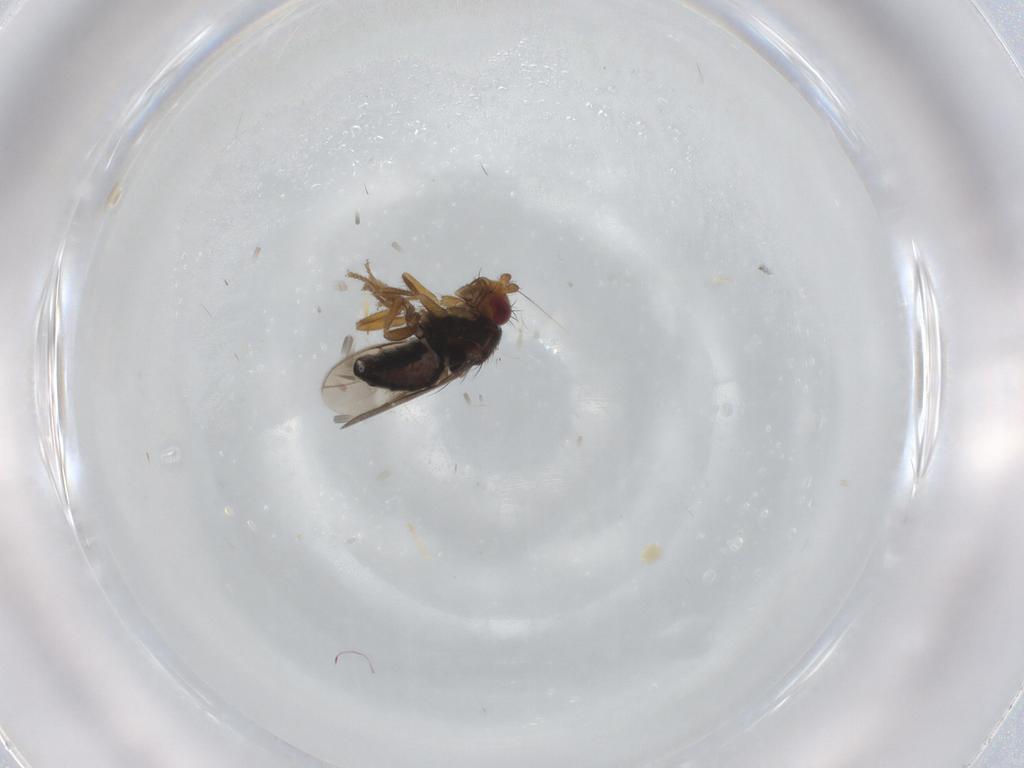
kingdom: Animalia
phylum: Arthropoda
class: Insecta
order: Diptera
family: Sphaeroceridae
